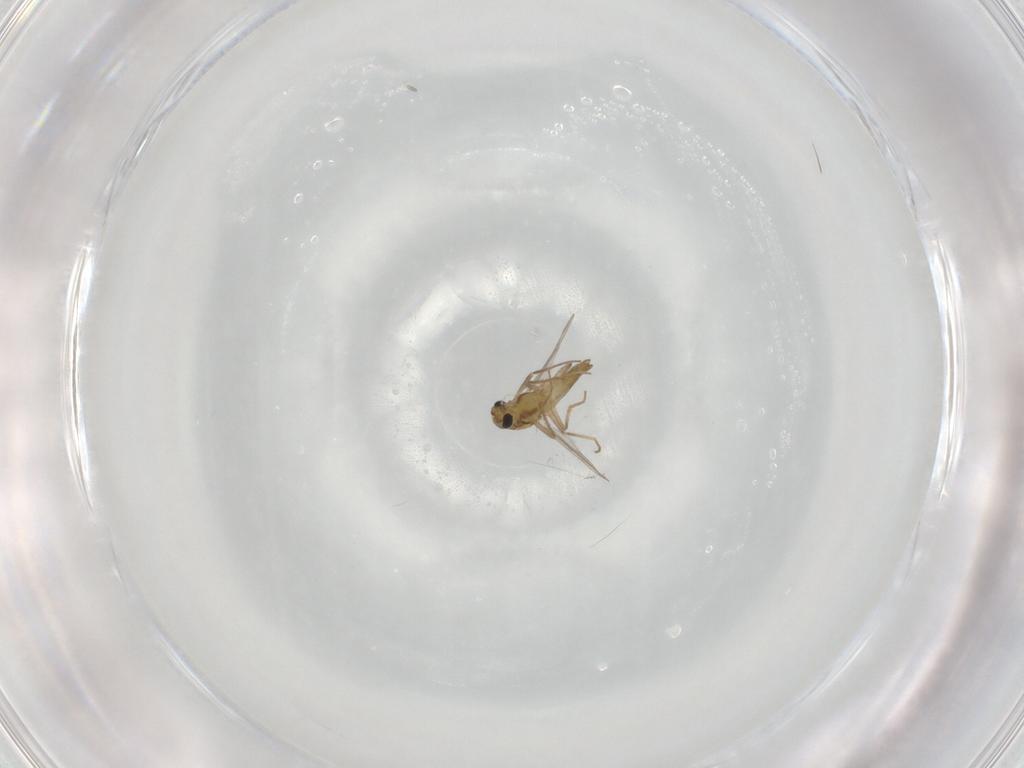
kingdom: Animalia
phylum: Arthropoda
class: Insecta
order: Diptera
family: Chironomidae
